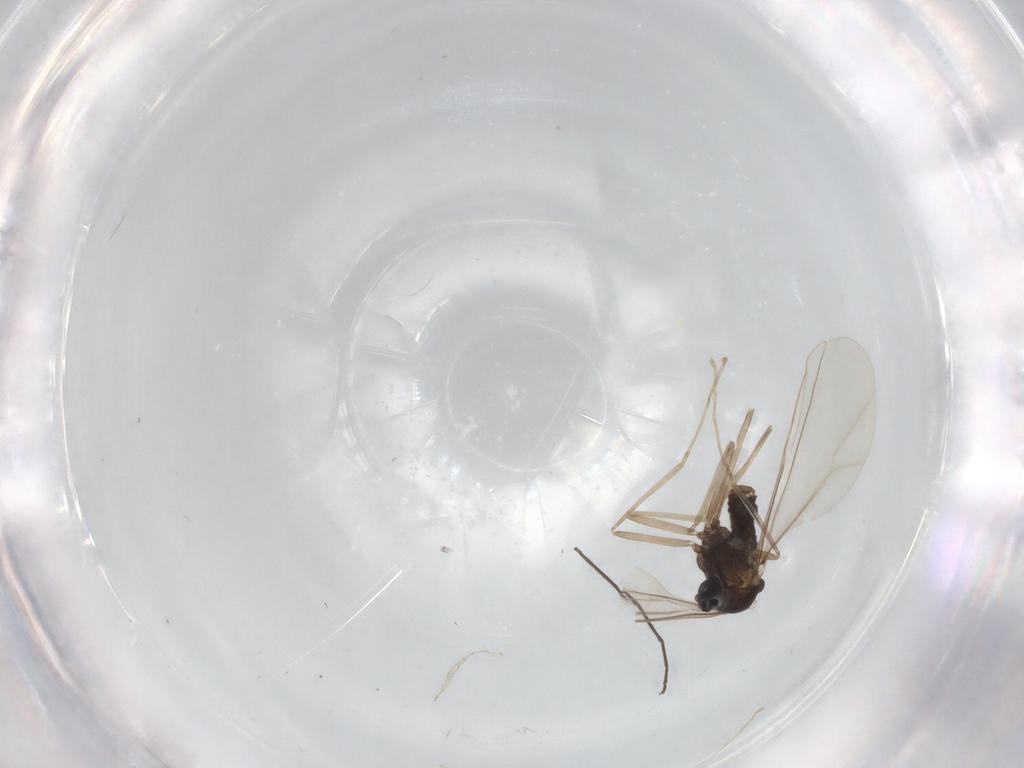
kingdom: Animalia
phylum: Arthropoda
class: Insecta
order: Diptera
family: Cecidomyiidae
